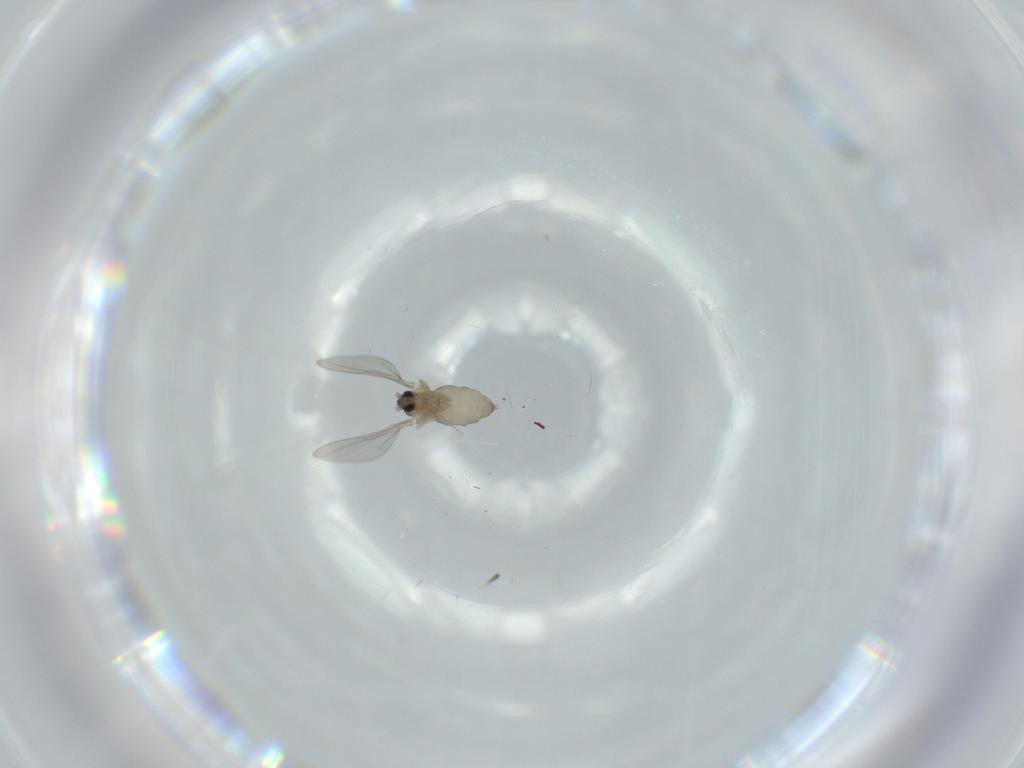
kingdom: Animalia
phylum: Arthropoda
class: Insecta
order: Diptera
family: Cecidomyiidae
